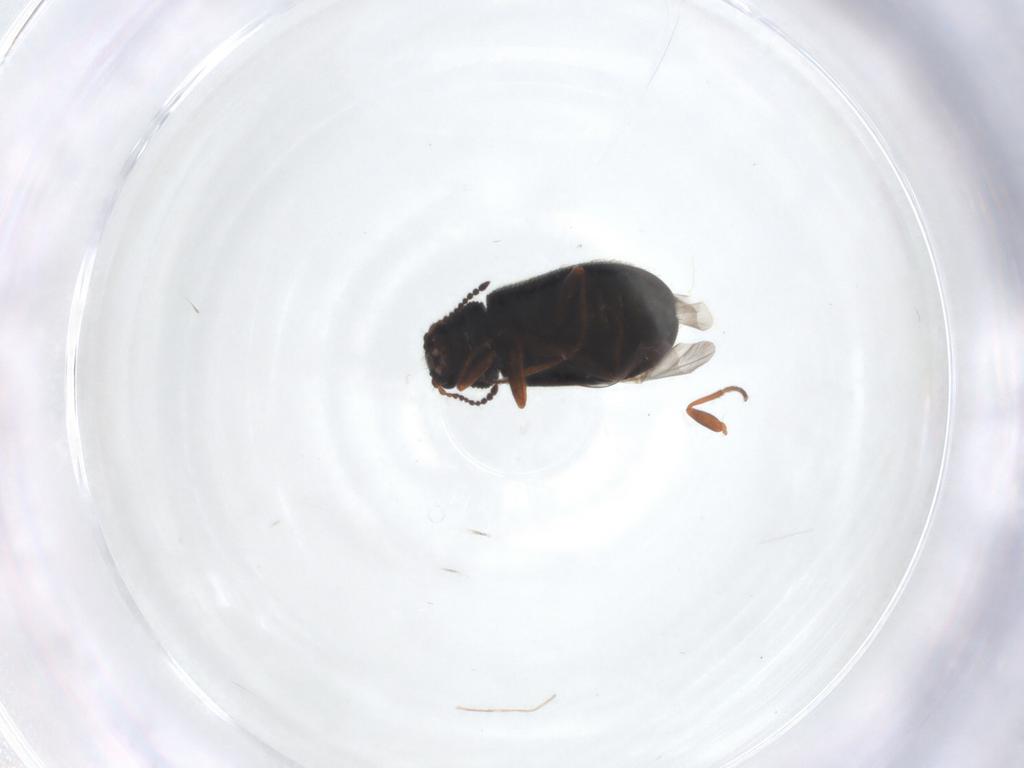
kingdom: Animalia
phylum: Arthropoda
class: Insecta
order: Coleoptera
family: Melyridae
